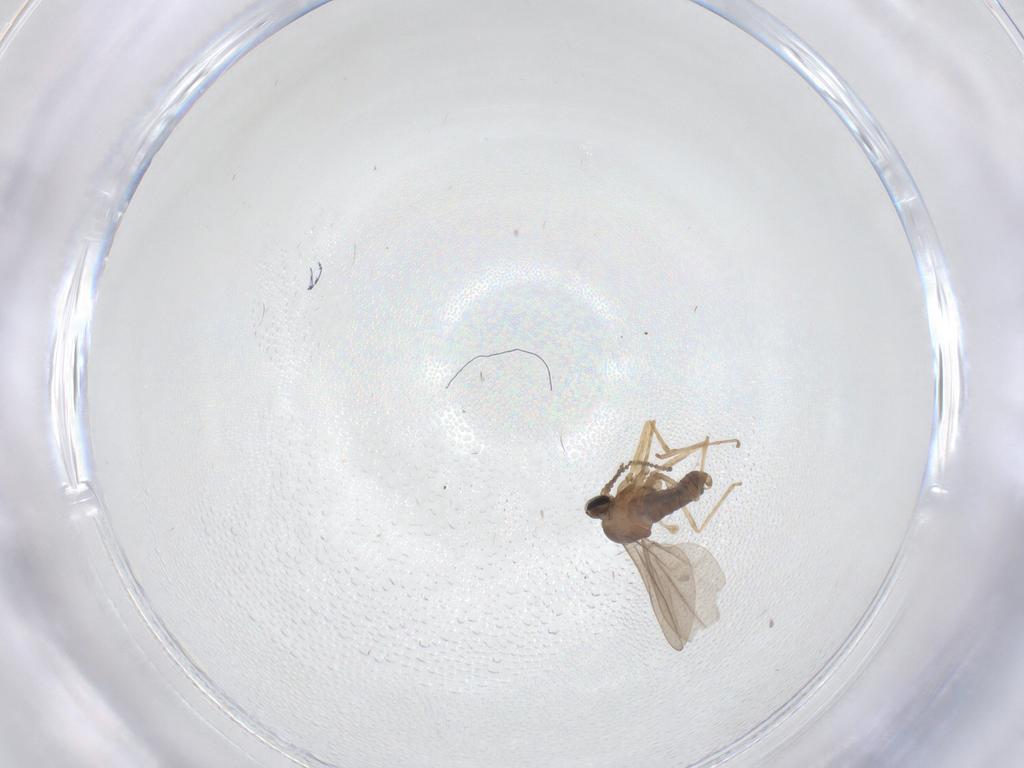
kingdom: Animalia
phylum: Arthropoda
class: Insecta
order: Diptera
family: Cecidomyiidae
